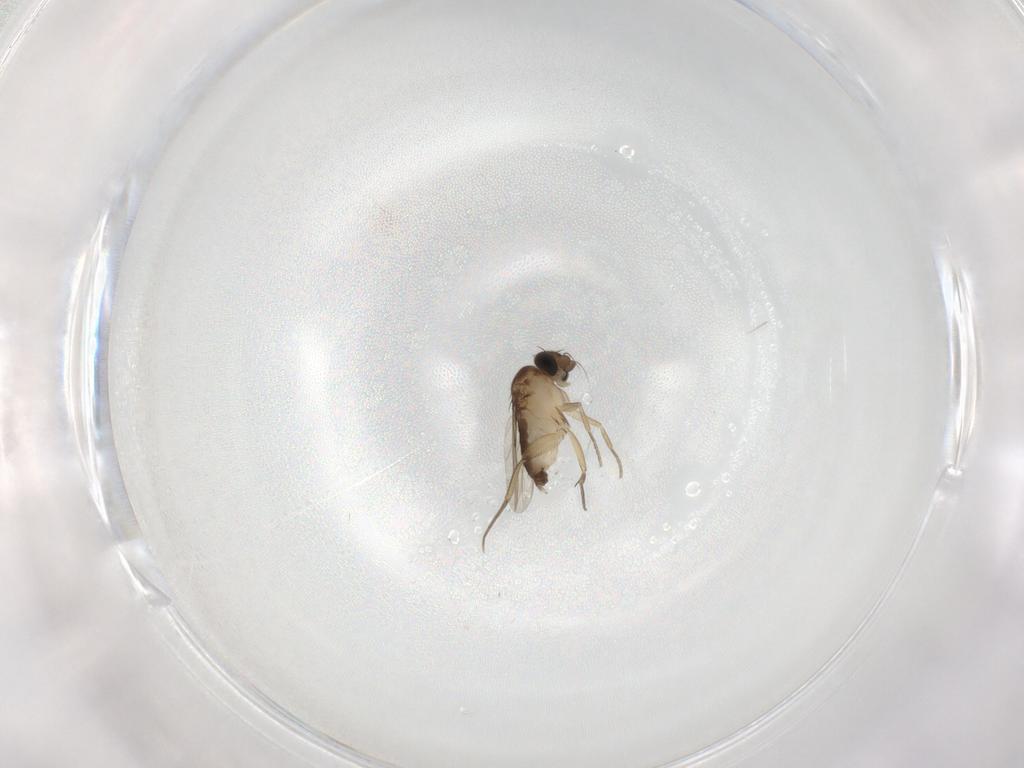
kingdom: Animalia
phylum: Arthropoda
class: Insecta
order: Diptera
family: Phoridae
